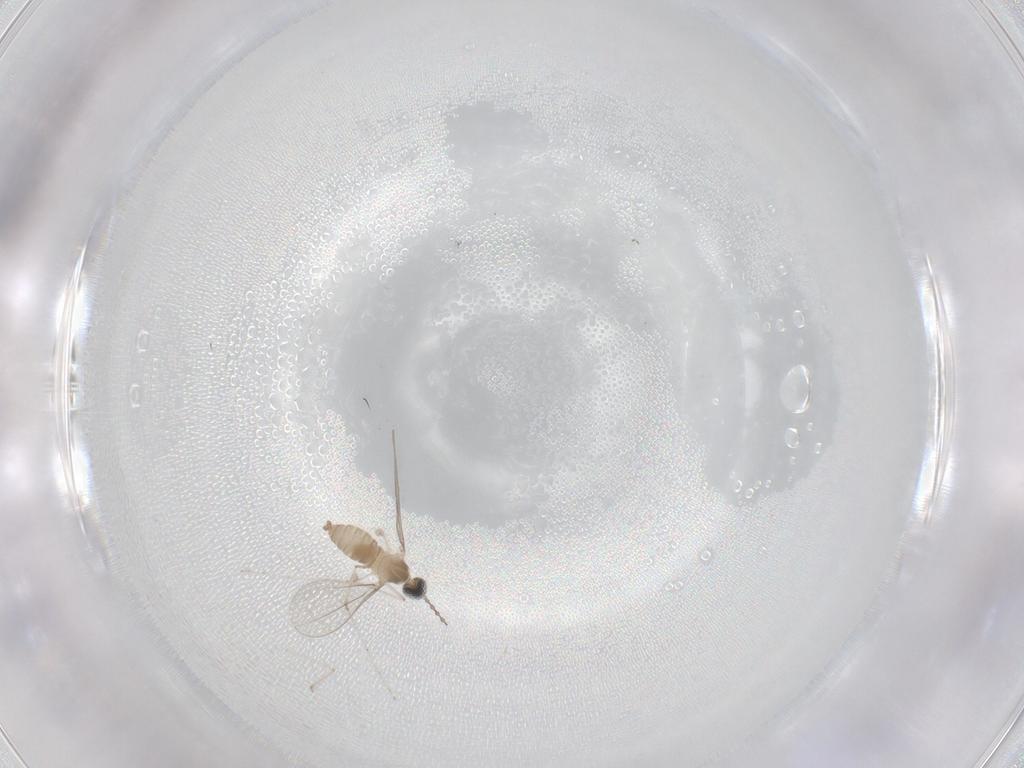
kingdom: Animalia
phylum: Arthropoda
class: Insecta
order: Diptera
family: Cecidomyiidae
